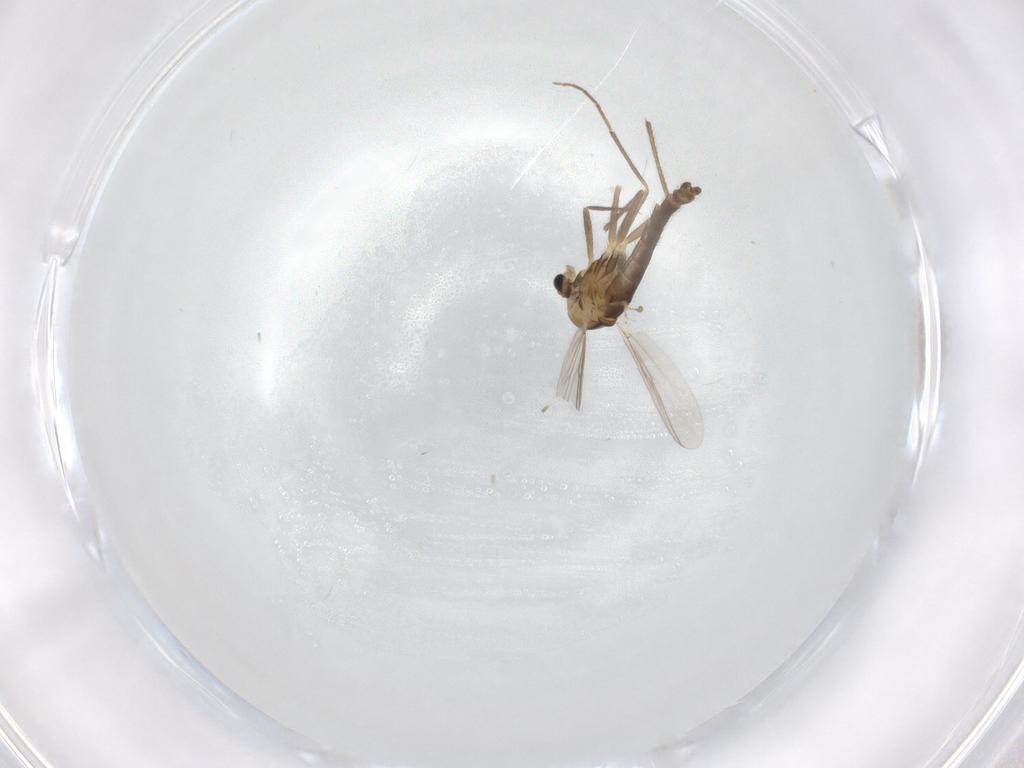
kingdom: Animalia
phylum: Arthropoda
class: Insecta
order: Diptera
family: Chironomidae
